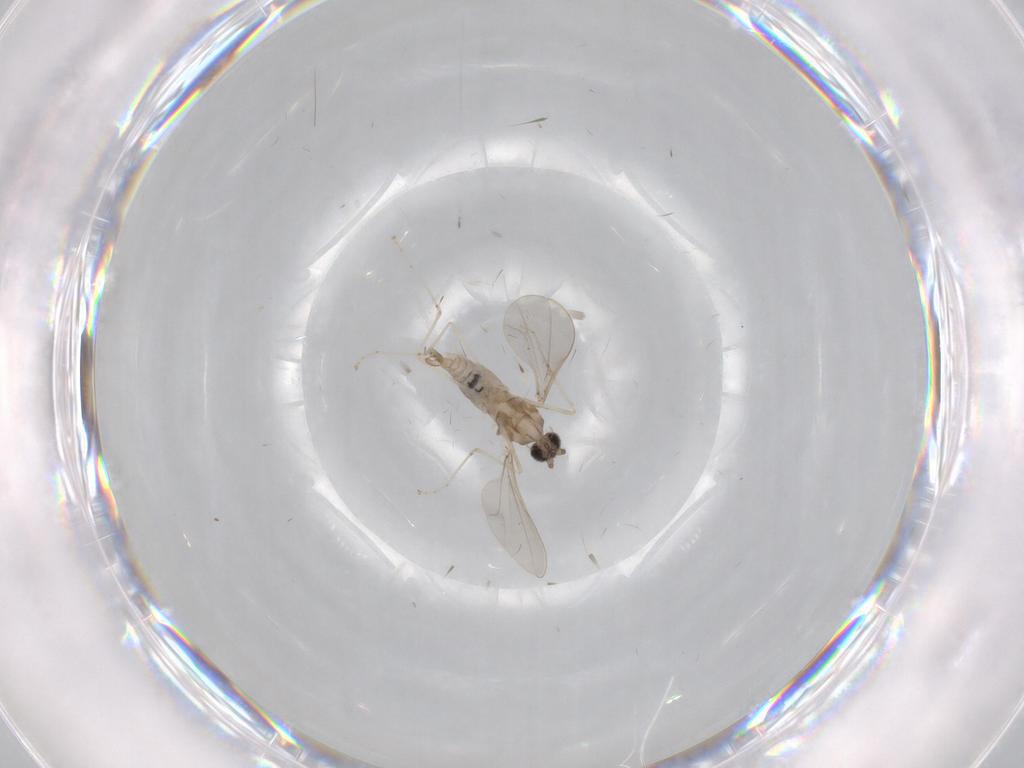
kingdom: Animalia
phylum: Arthropoda
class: Insecta
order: Diptera
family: Cecidomyiidae
